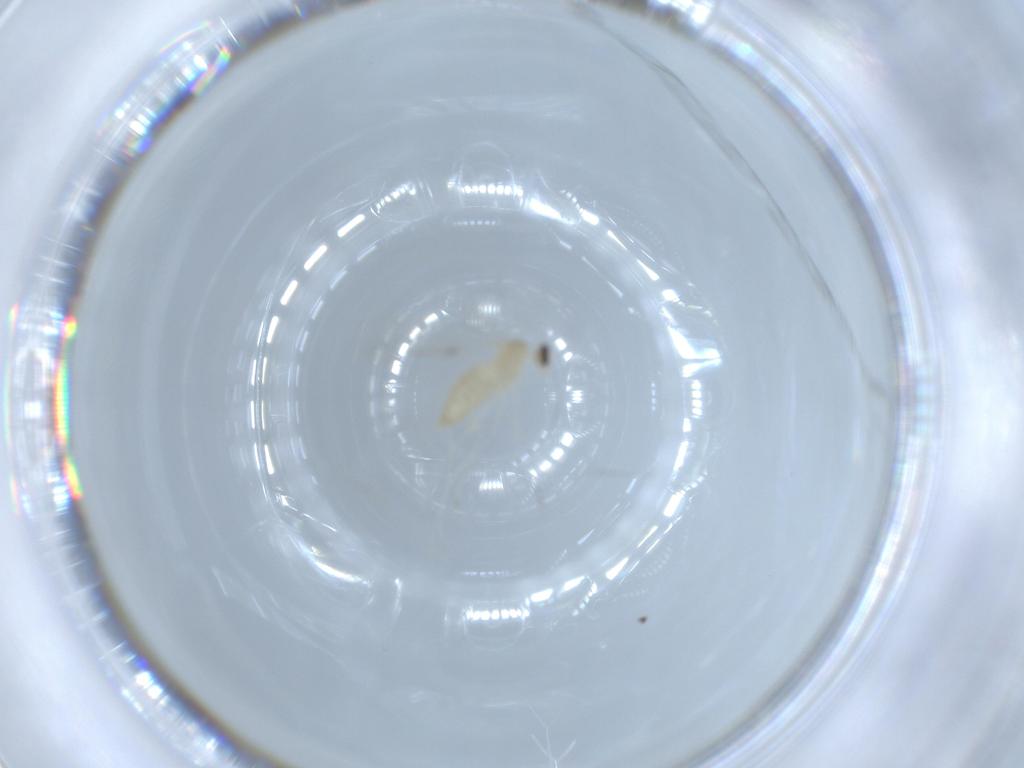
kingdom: Animalia
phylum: Arthropoda
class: Insecta
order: Diptera
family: Cecidomyiidae
